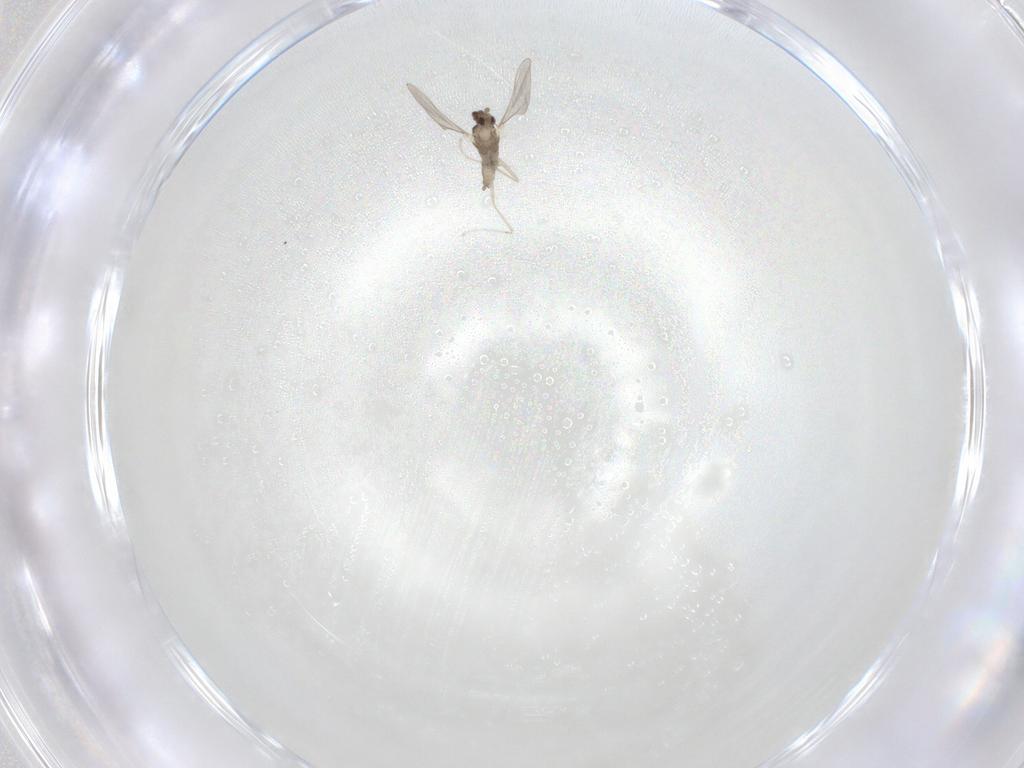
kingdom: Animalia
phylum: Arthropoda
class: Insecta
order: Diptera
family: Cecidomyiidae
